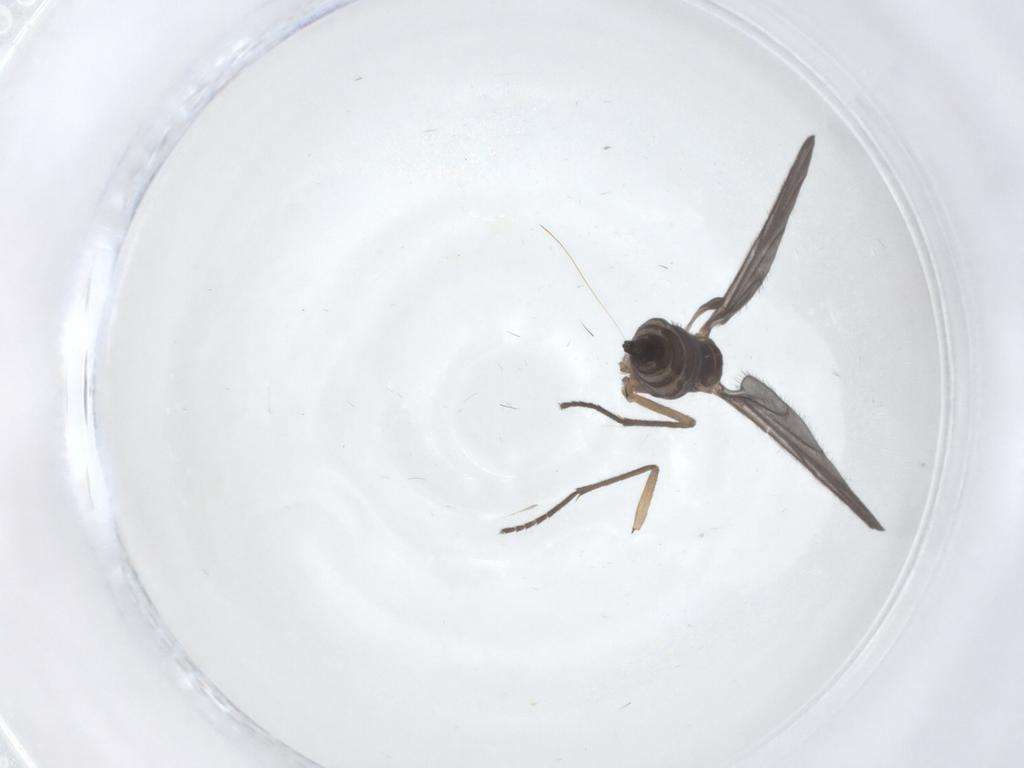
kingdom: Animalia
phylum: Arthropoda
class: Insecta
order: Diptera
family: Sciaridae
